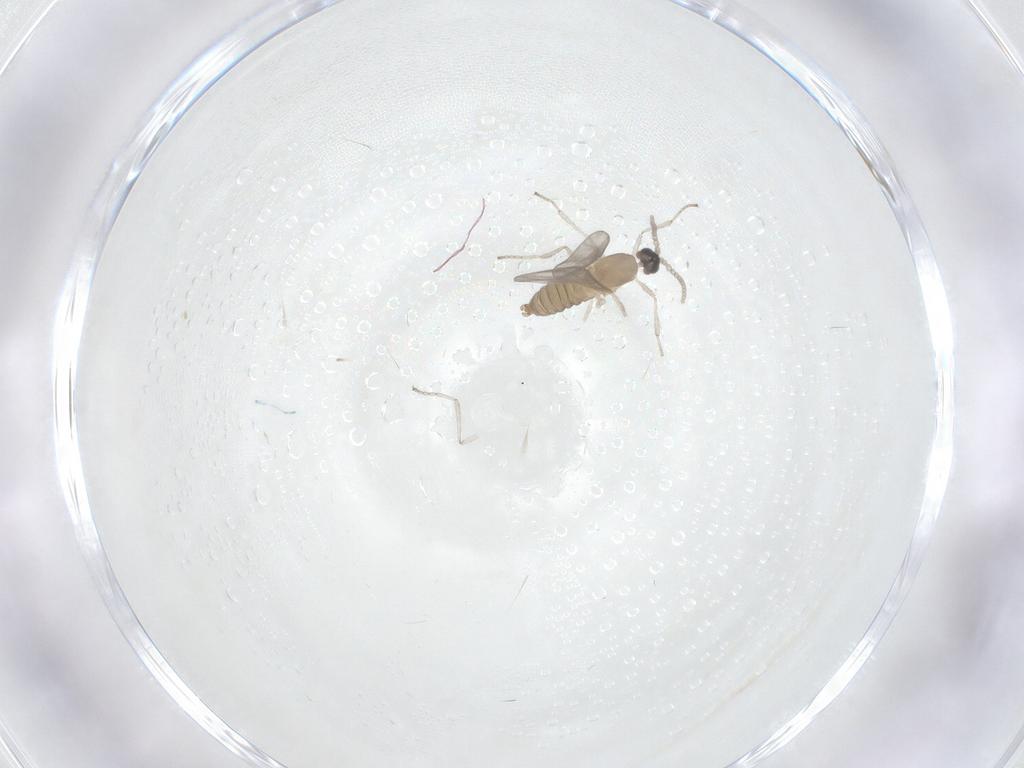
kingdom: Animalia
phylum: Arthropoda
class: Insecta
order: Diptera
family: Cecidomyiidae
